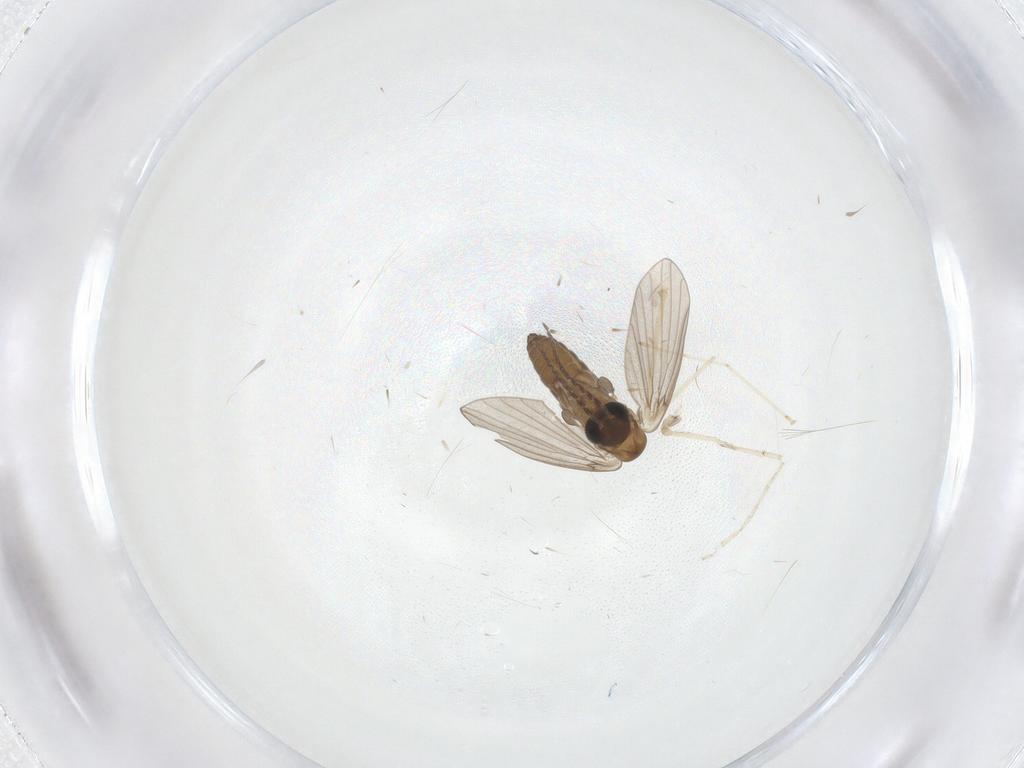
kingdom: Animalia
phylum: Arthropoda
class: Insecta
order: Diptera
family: Cecidomyiidae
